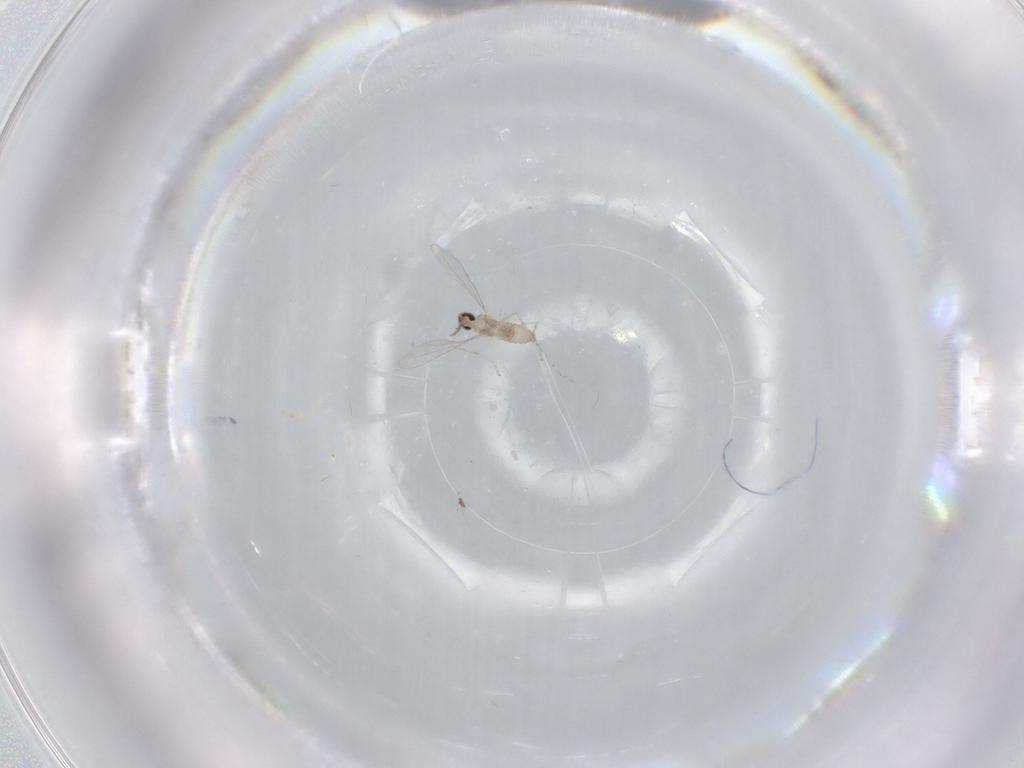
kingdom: Animalia
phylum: Arthropoda
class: Insecta
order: Diptera
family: Cecidomyiidae
